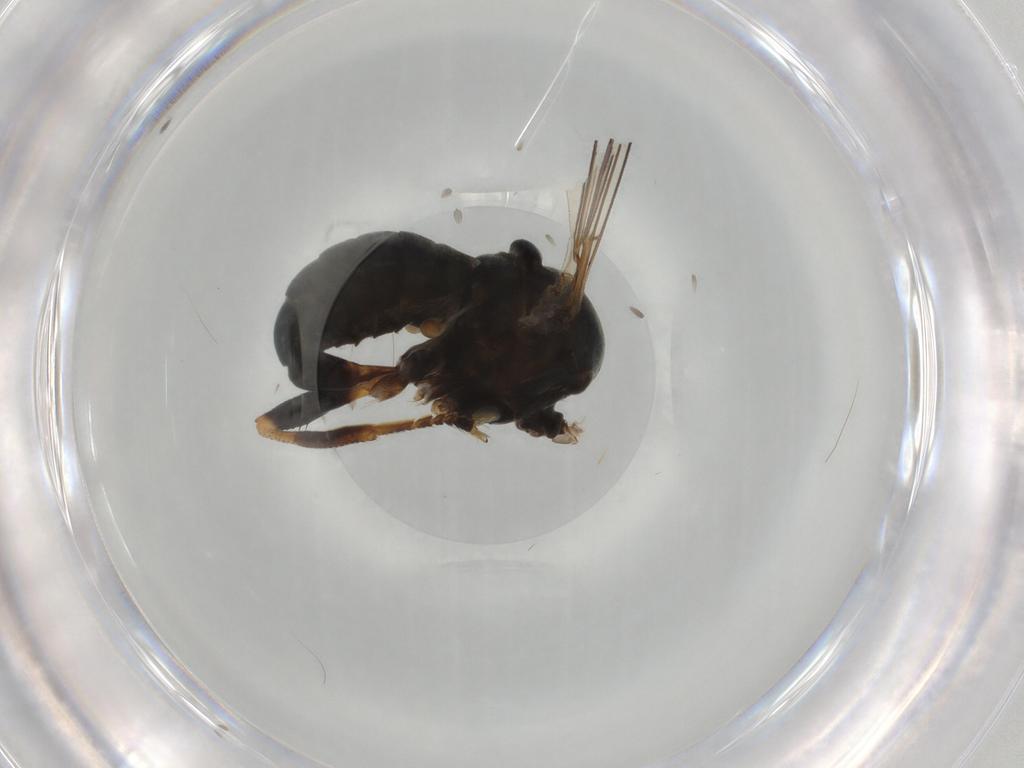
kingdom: Animalia
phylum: Arthropoda
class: Insecta
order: Diptera
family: Pipunculidae
